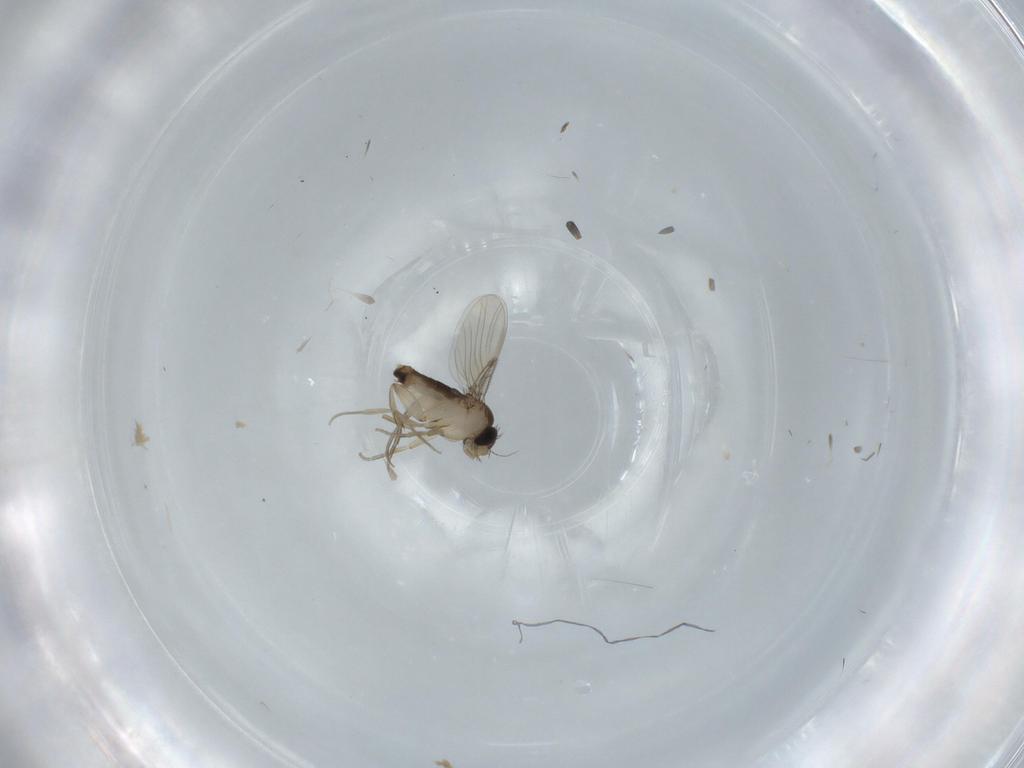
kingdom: Animalia
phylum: Arthropoda
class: Insecta
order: Diptera
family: Phoridae
